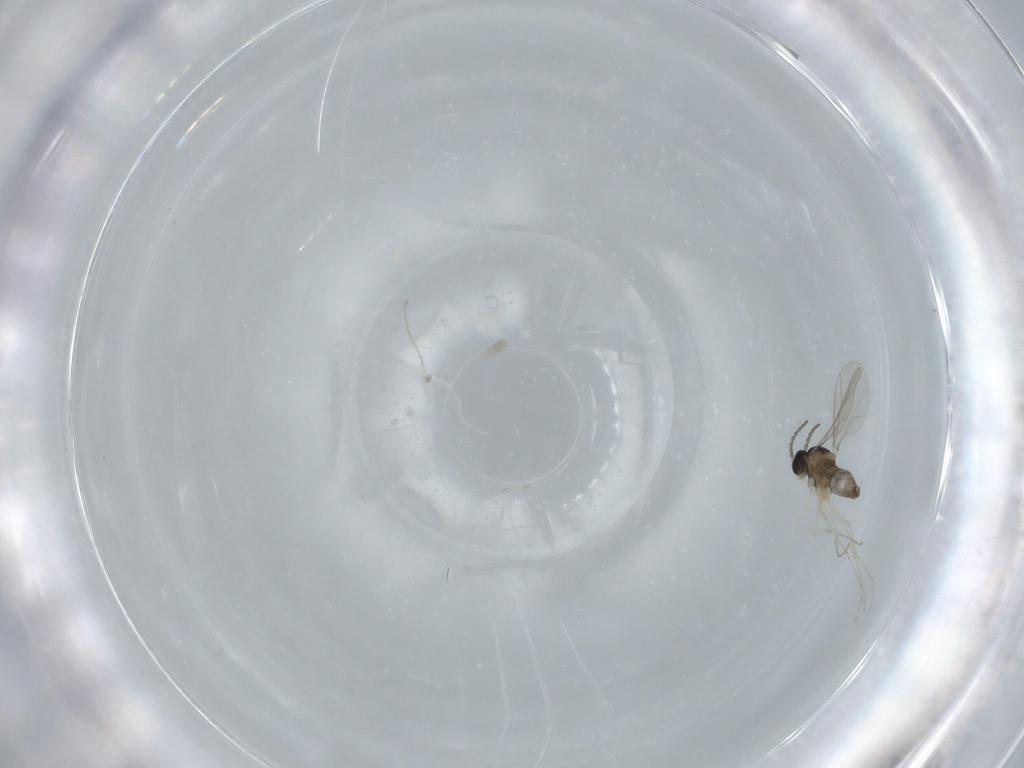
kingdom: Animalia
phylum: Arthropoda
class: Insecta
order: Diptera
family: Cecidomyiidae
